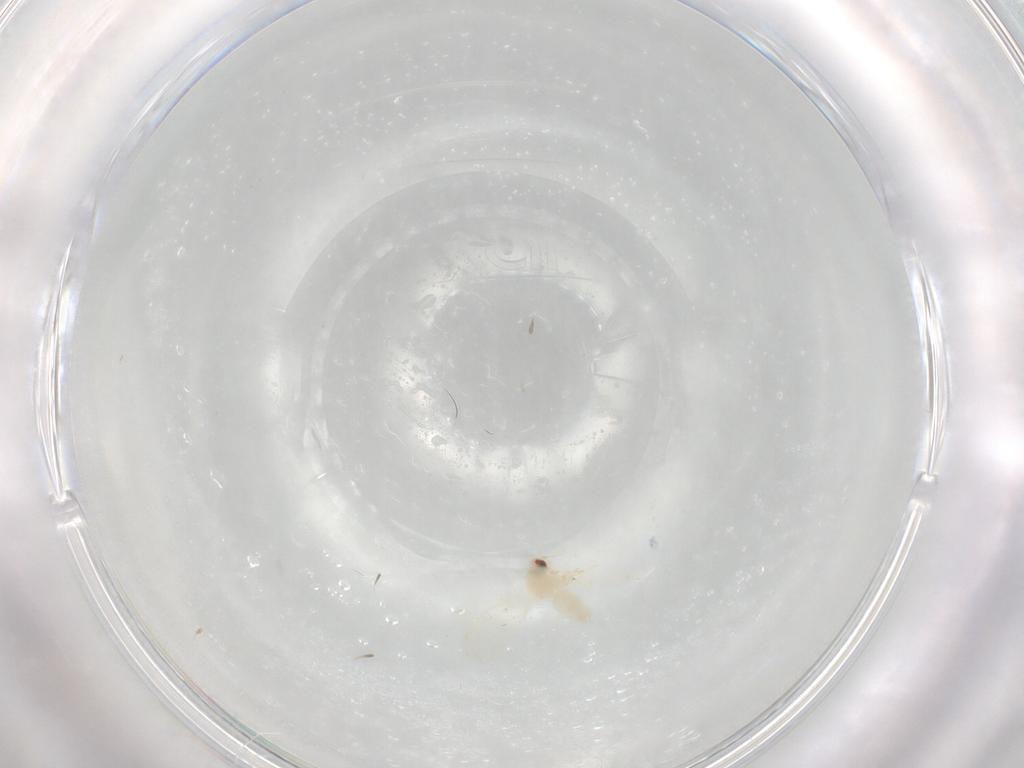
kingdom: Animalia
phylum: Arthropoda
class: Insecta
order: Hemiptera
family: Aleyrodidae
